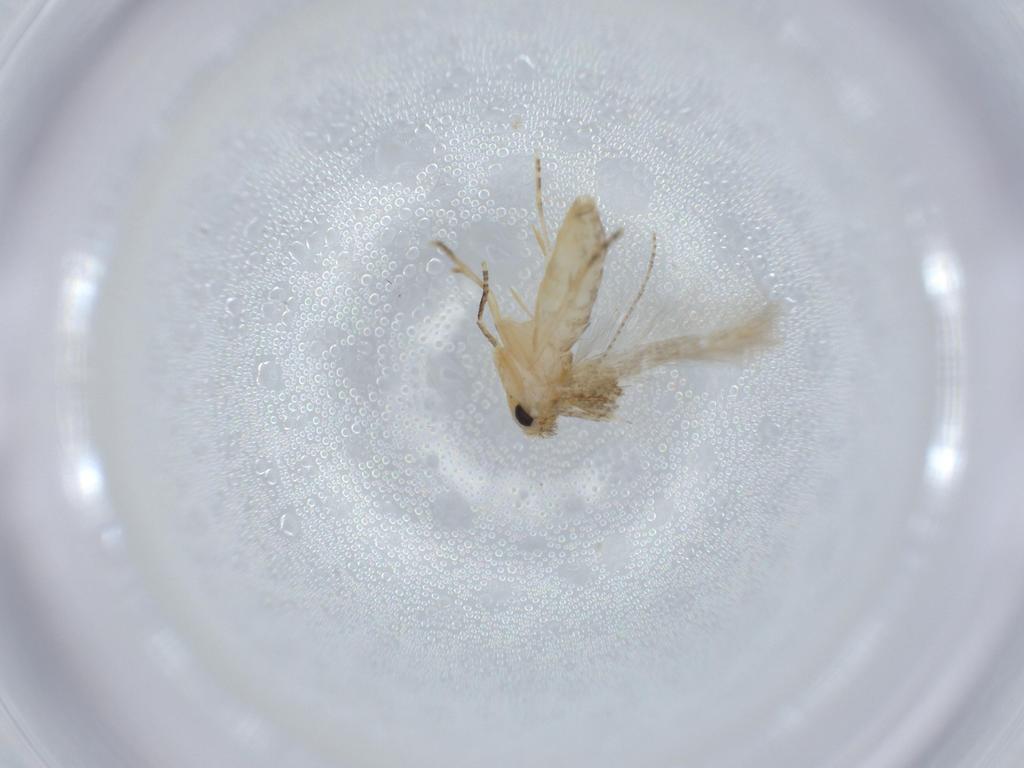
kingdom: Animalia
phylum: Arthropoda
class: Insecta
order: Lepidoptera
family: Bucculatricidae
